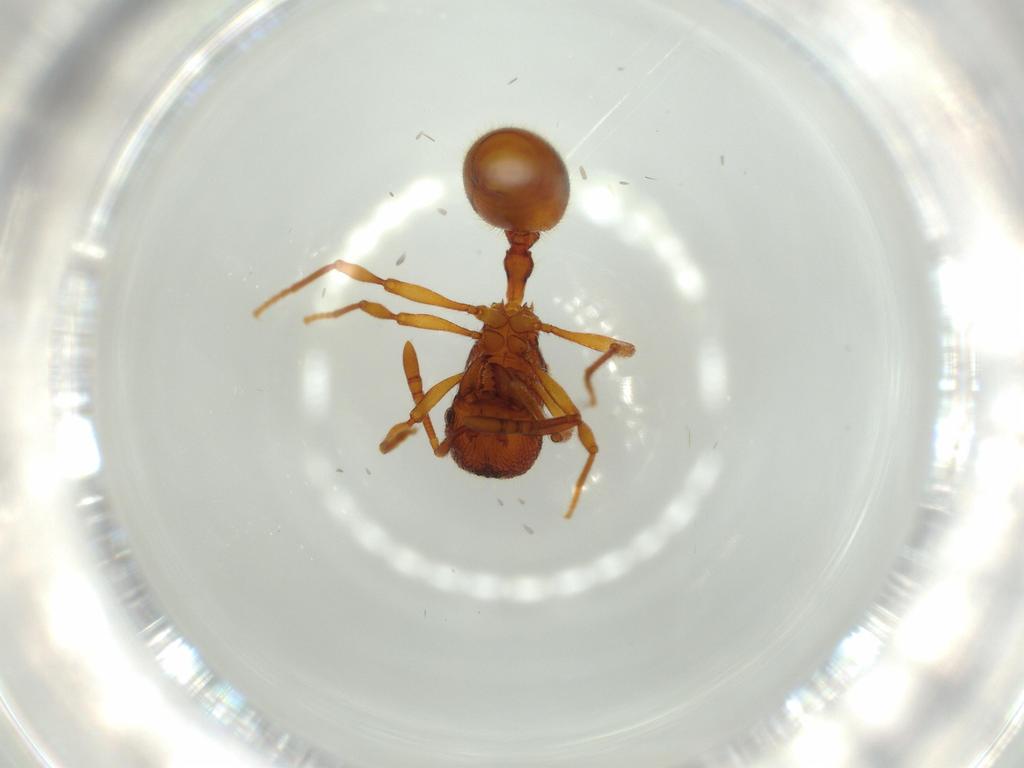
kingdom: Animalia
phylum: Arthropoda
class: Insecta
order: Hymenoptera
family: Formicidae
